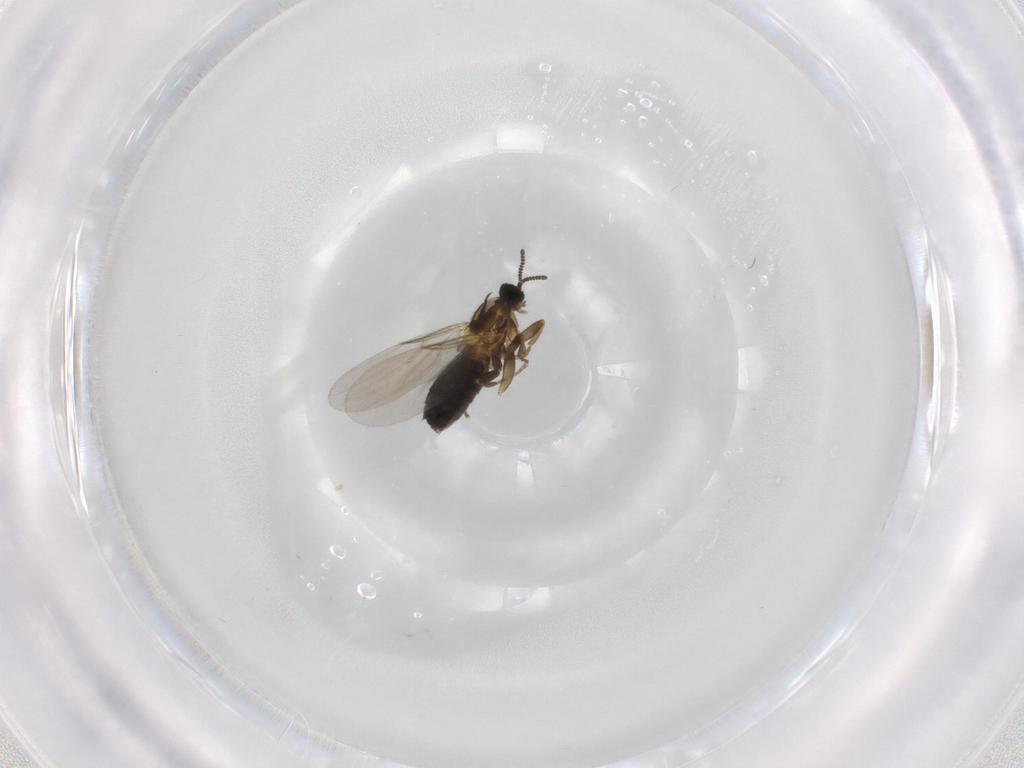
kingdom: Animalia
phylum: Arthropoda
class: Insecta
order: Diptera
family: Scatopsidae
